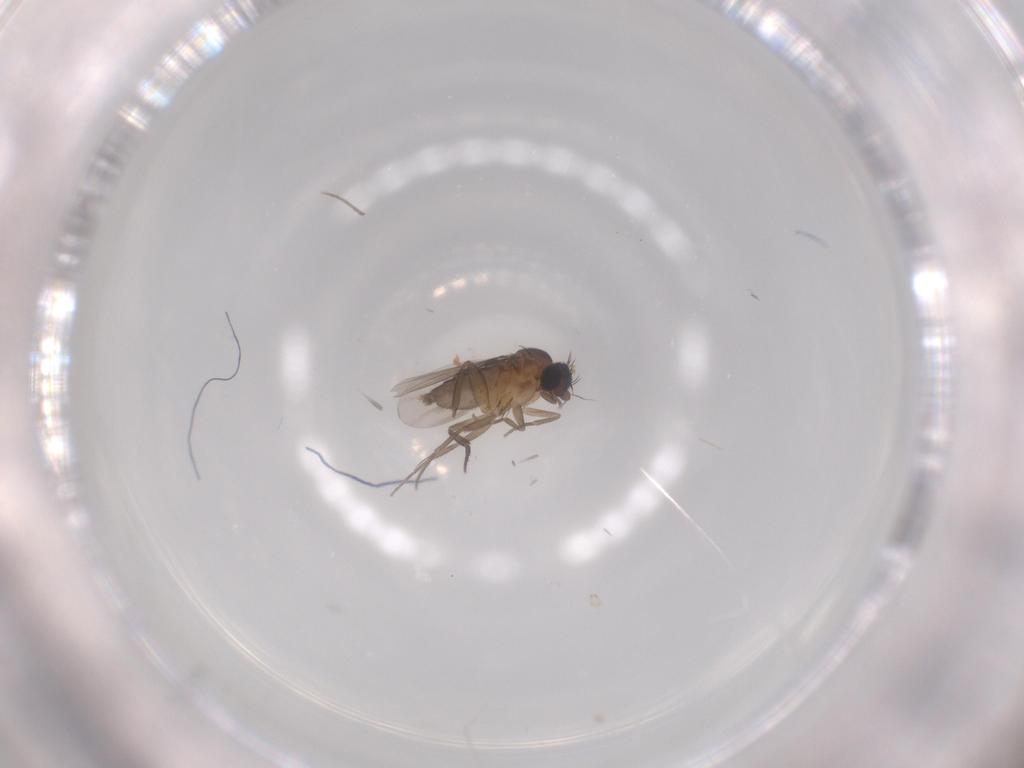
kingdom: Animalia
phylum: Arthropoda
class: Insecta
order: Diptera
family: Phoridae
